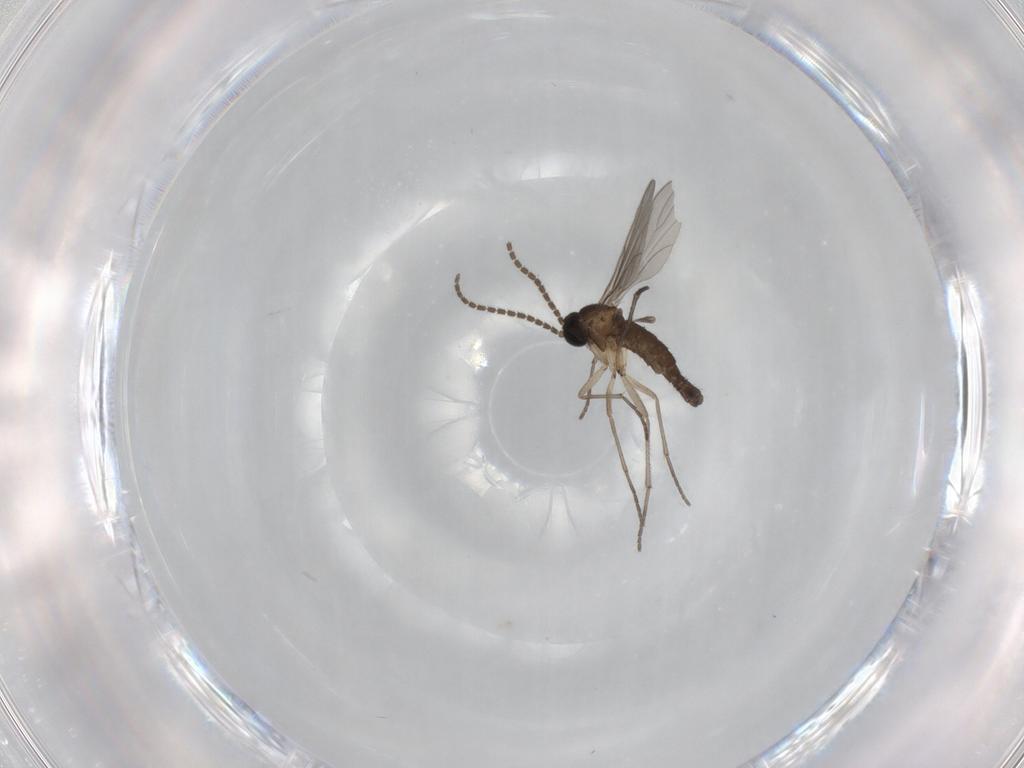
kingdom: Animalia
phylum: Arthropoda
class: Insecta
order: Diptera
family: Sciaridae
